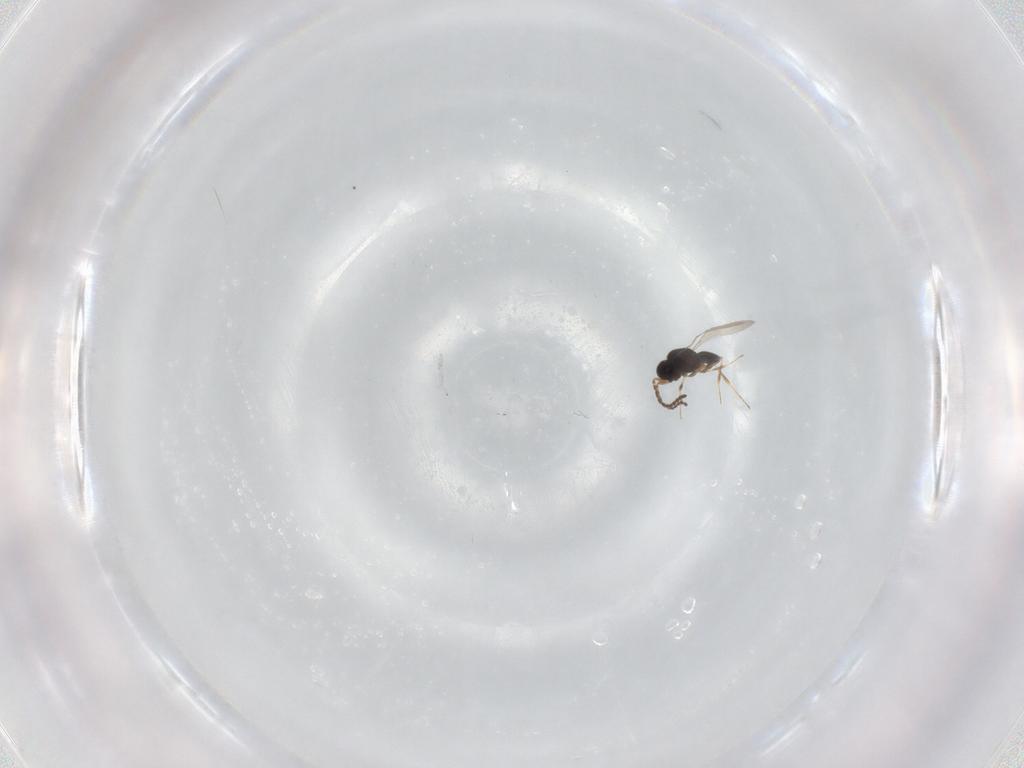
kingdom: Animalia
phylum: Arthropoda
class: Insecta
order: Hymenoptera
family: Scelionidae
